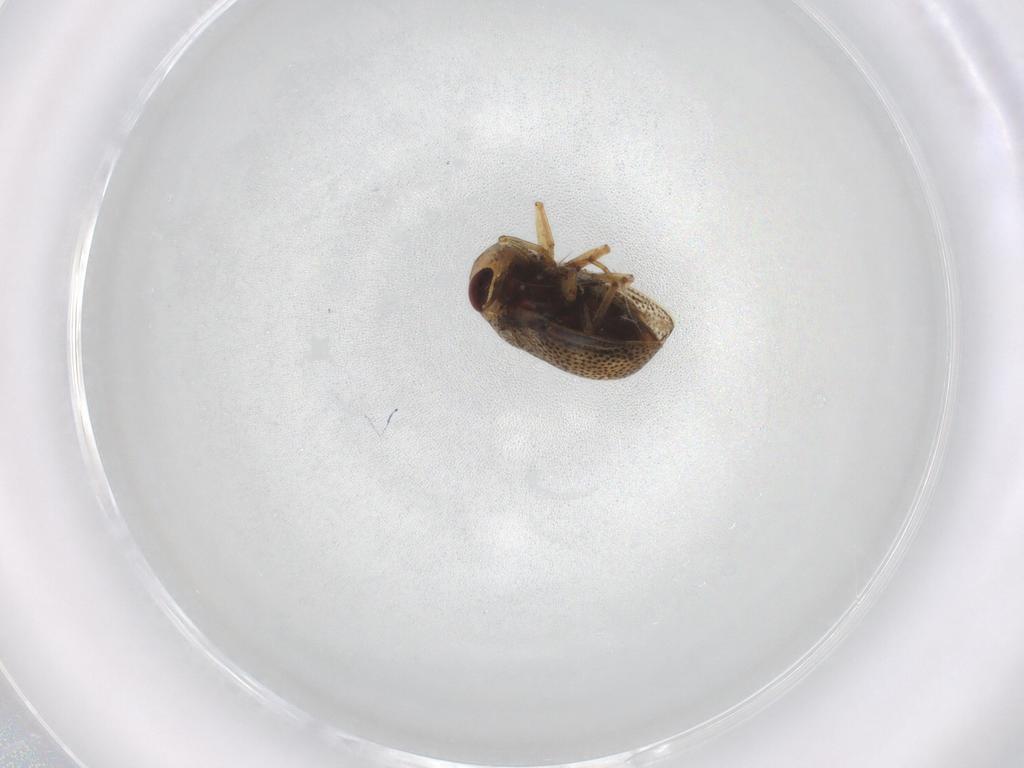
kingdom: Animalia
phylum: Arthropoda
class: Insecta
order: Hemiptera
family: Pleidae
